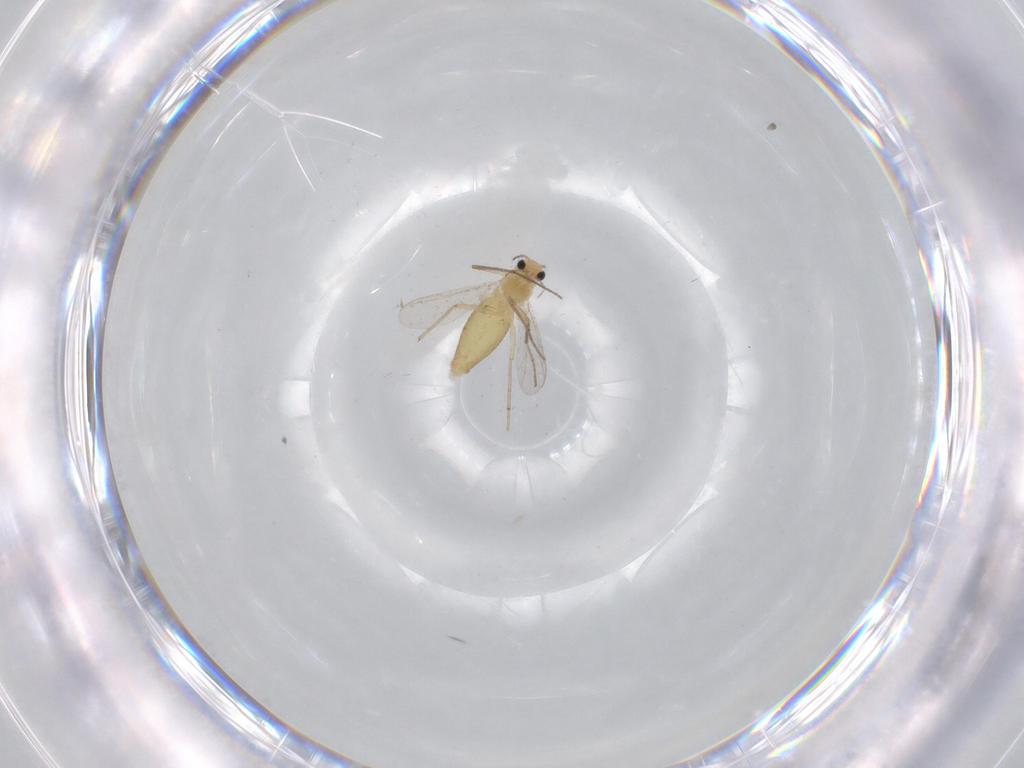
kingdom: Animalia
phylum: Arthropoda
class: Insecta
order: Diptera
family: Chironomidae
